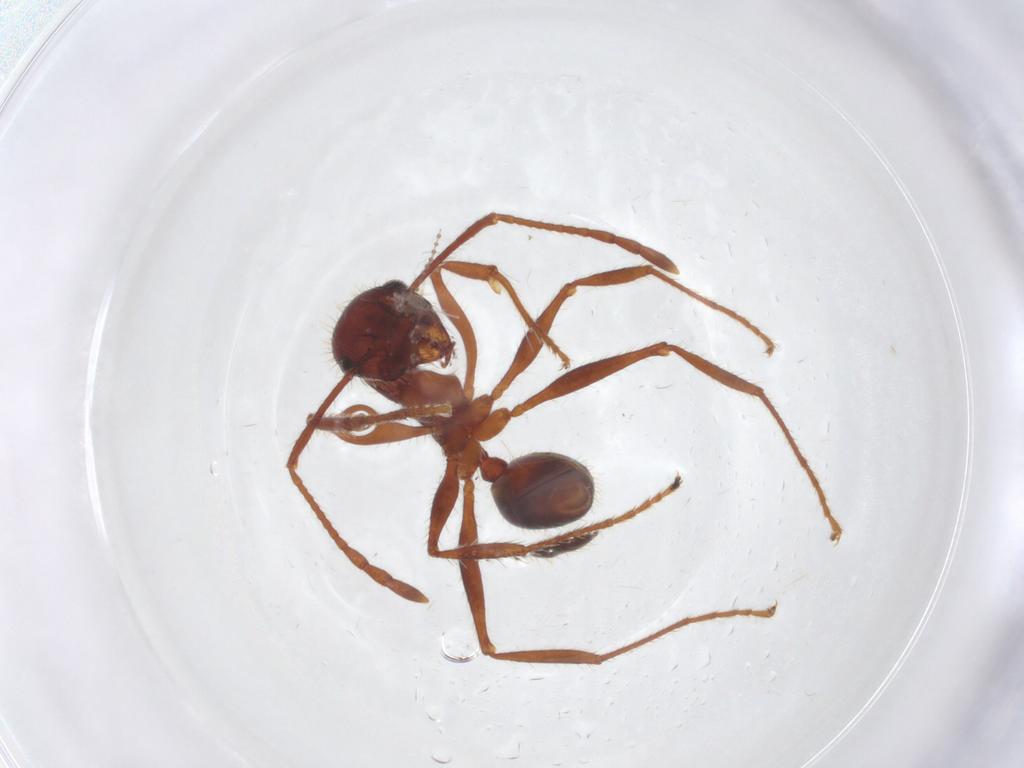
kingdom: Animalia
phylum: Arthropoda
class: Insecta
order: Hymenoptera
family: Formicidae
